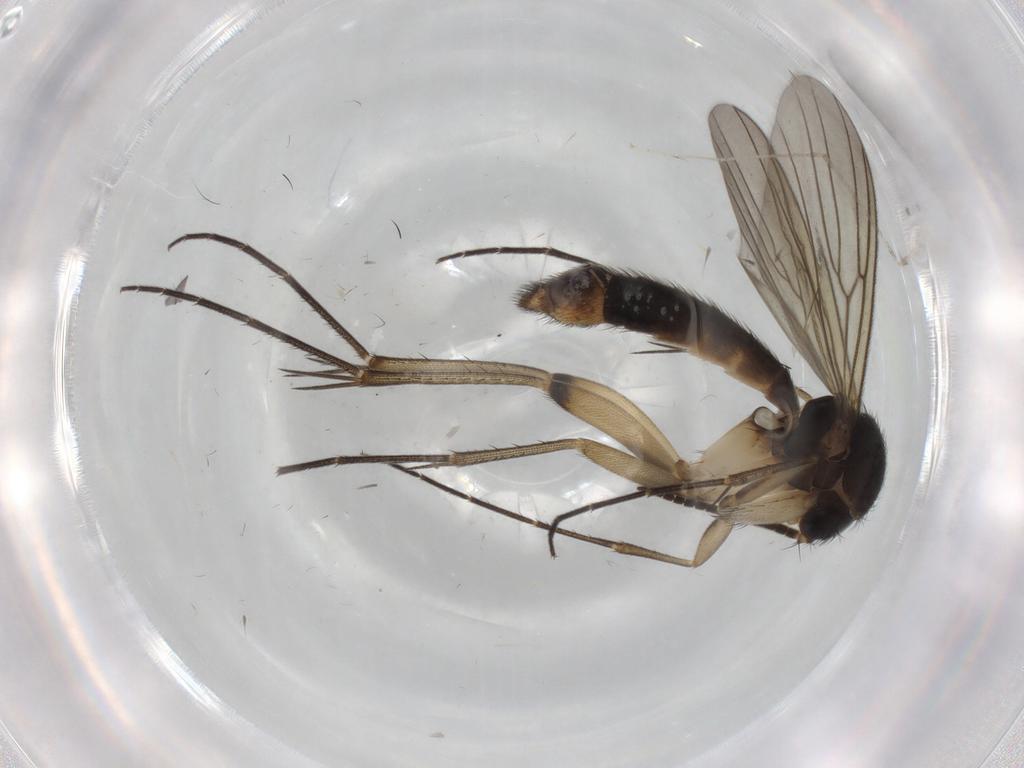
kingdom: Animalia
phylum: Arthropoda
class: Insecta
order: Diptera
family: Mycetophilidae
